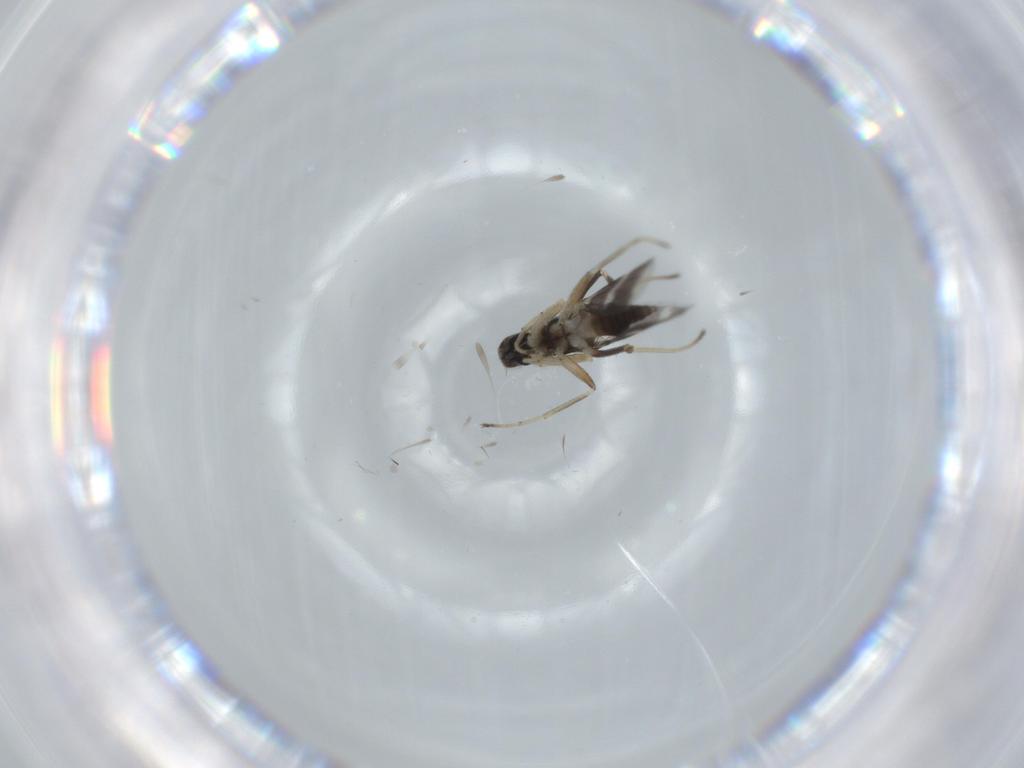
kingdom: Animalia
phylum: Arthropoda
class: Insecta
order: Diptera
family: Hybotidae
